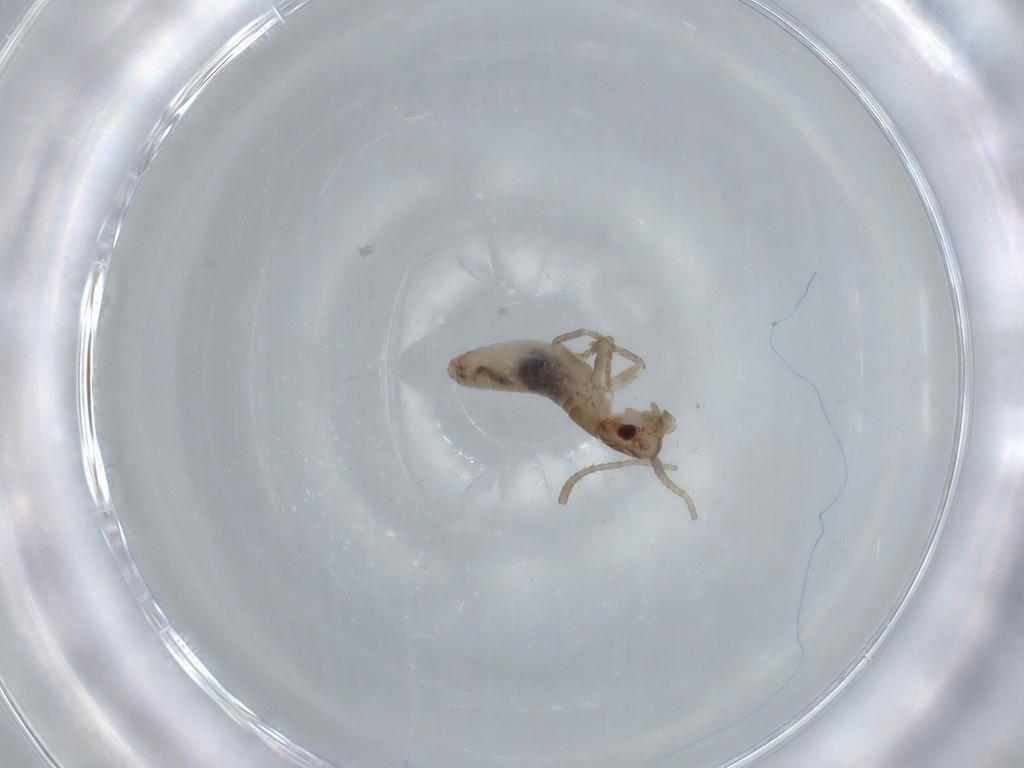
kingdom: Animalia
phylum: Arthropoda
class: Insecta
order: Orthoptera
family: Mogoplistidae
